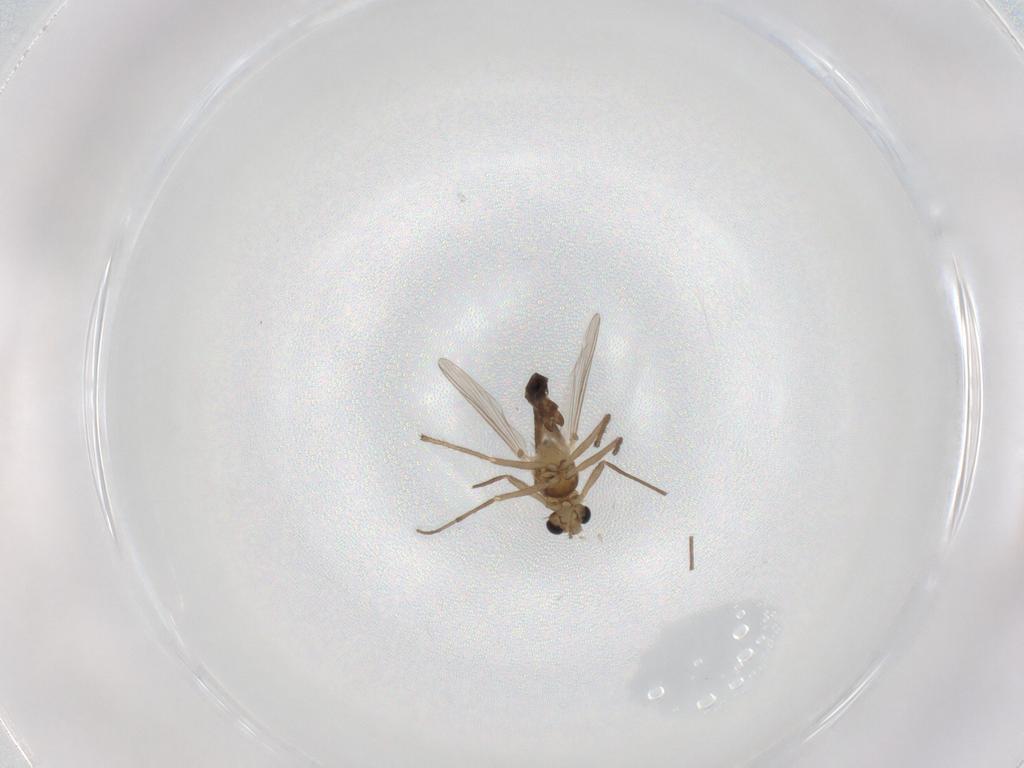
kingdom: Animalia
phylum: Arthropoda
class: Insecta
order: Diptera
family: Chironomidae
